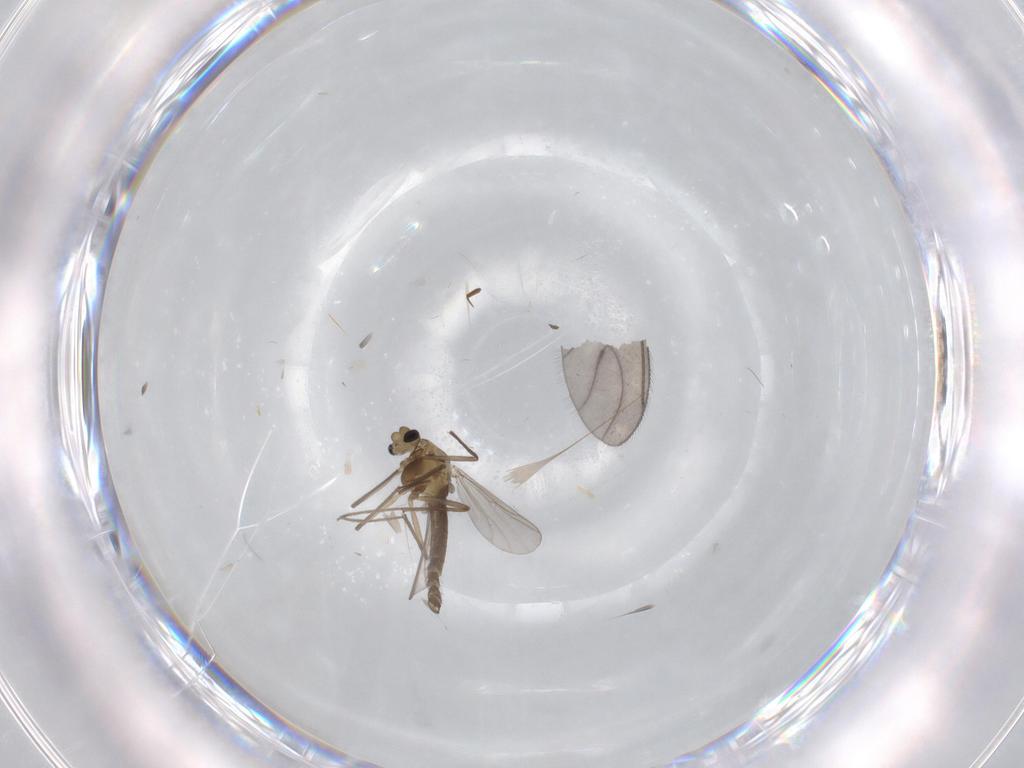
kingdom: Animalia
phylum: Arthropoda
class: Insecta
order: Diptera
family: Chironomidae
